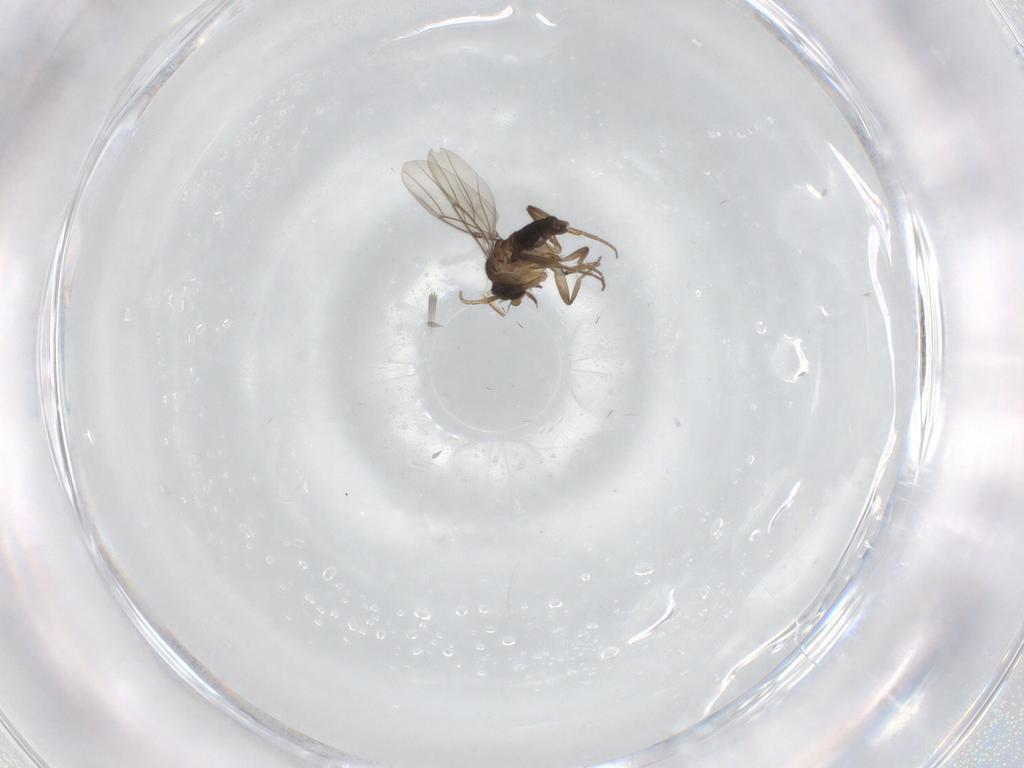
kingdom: Animalia
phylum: Arthropoda
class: Insecta
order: Diptera
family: Phoridae
